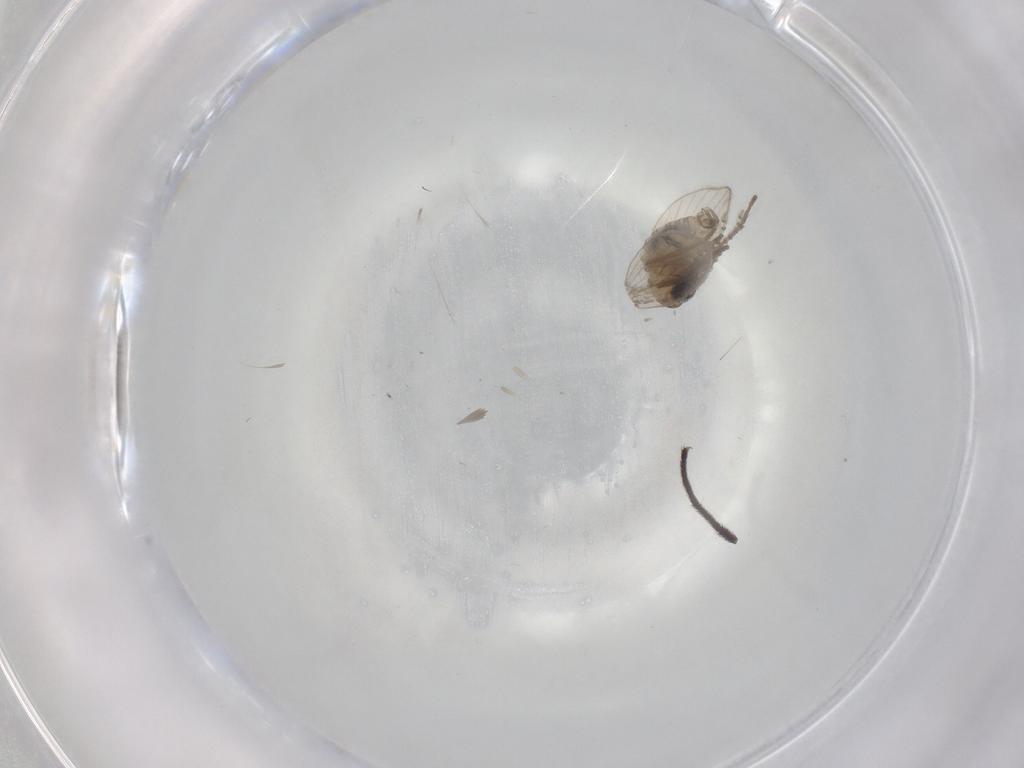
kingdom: Animalia
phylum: Arthropoda
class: Insecta
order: Diptera
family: Psychodidae
